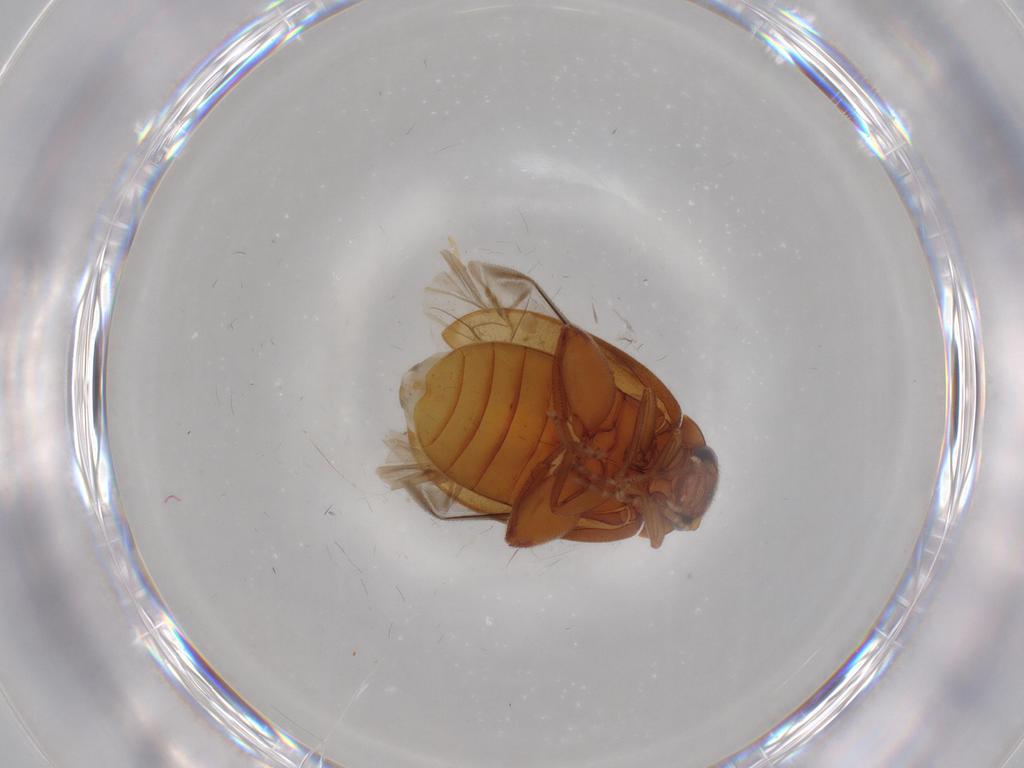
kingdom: Animalia
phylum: Arthropoda
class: Insecta
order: Coleoptera
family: Scirtidae
